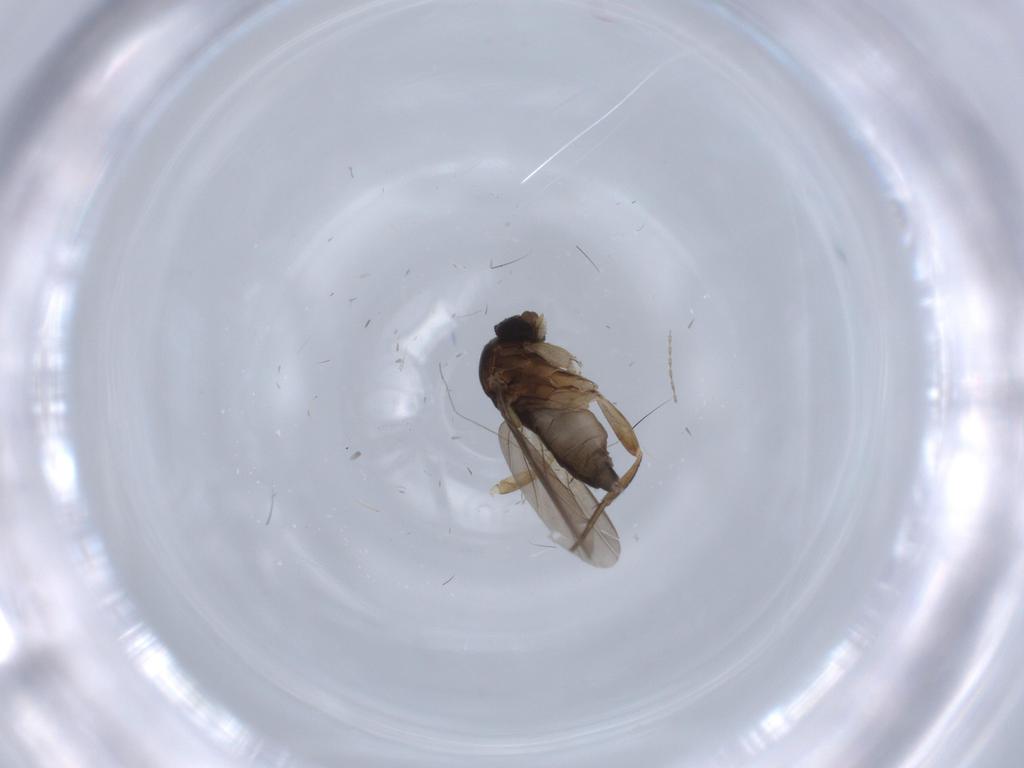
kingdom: Animalia
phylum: Arthropoda
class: Insecta
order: Diptera
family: Phoridae
